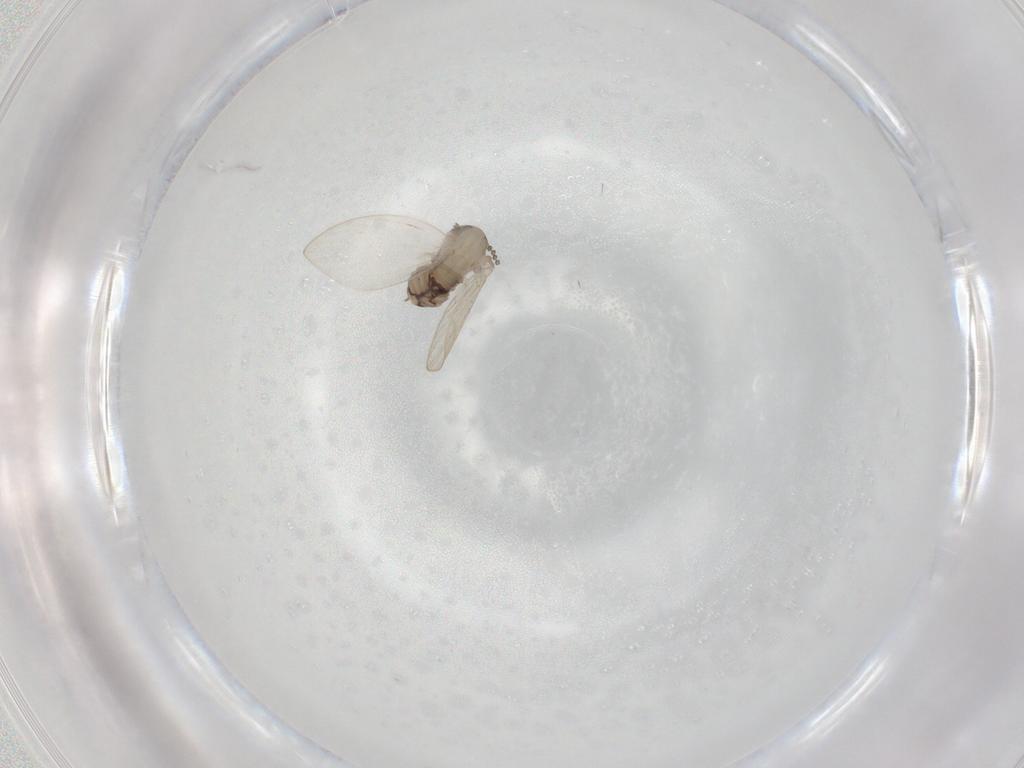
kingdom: Animalia
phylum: Arthropoda
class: Insecta
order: Diptera
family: Psychodidae
